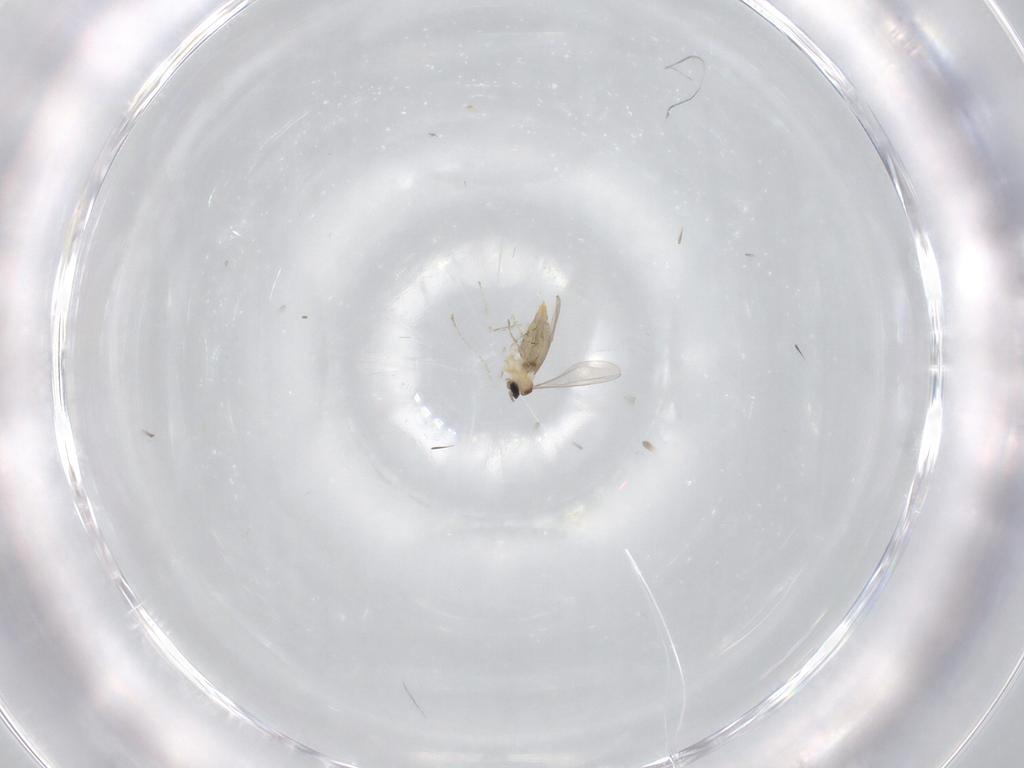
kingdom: Animalia
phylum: Arthropoda
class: Insecta
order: Diptera
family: Cecidomyiidae
